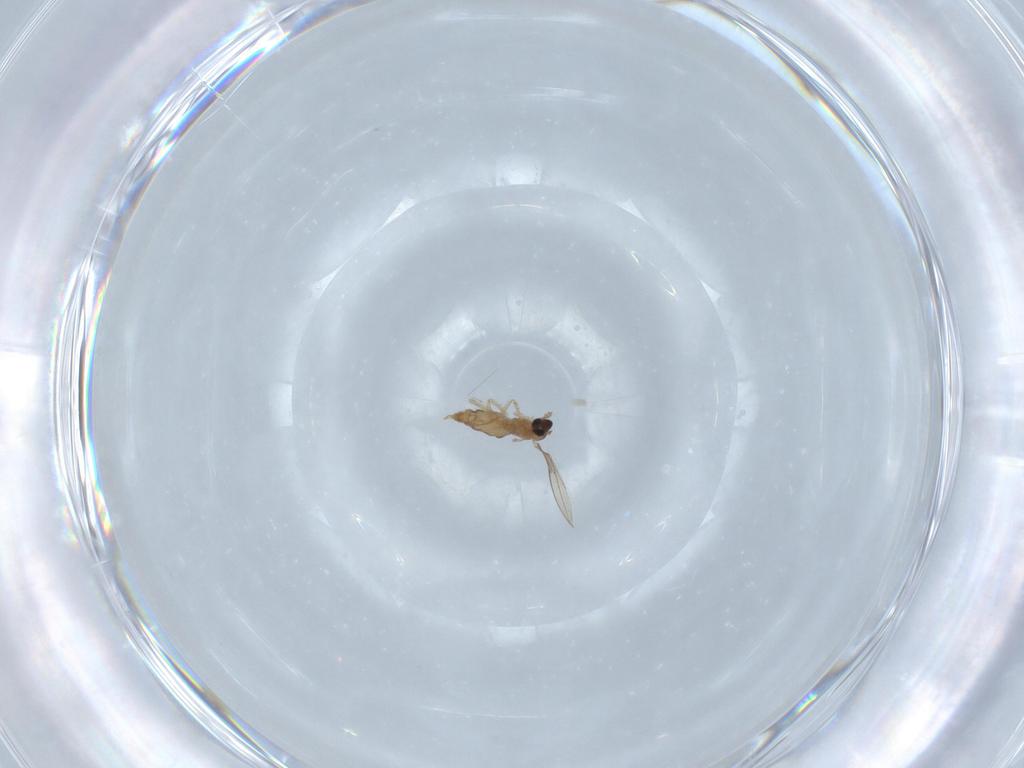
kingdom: Animalia
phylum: Arthropoda
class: Insecta
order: Diptera
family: Cecidomyiidae
